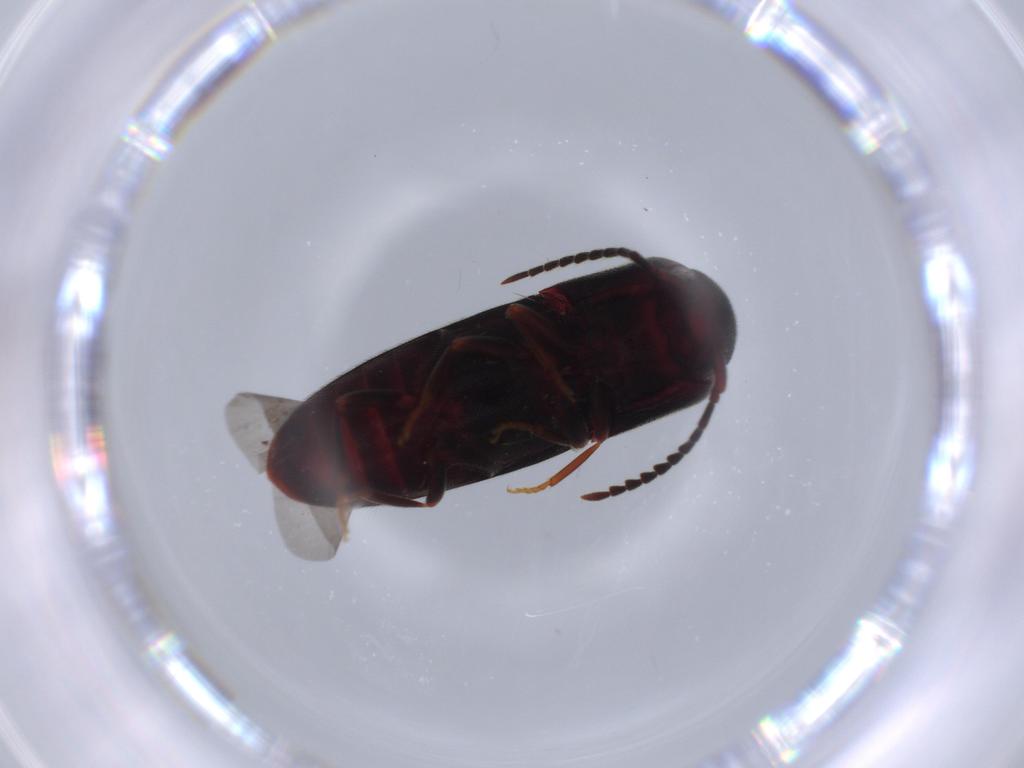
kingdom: Animalia
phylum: Arthropoda
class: Insecta
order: Coleoptera
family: Eucnemidae
